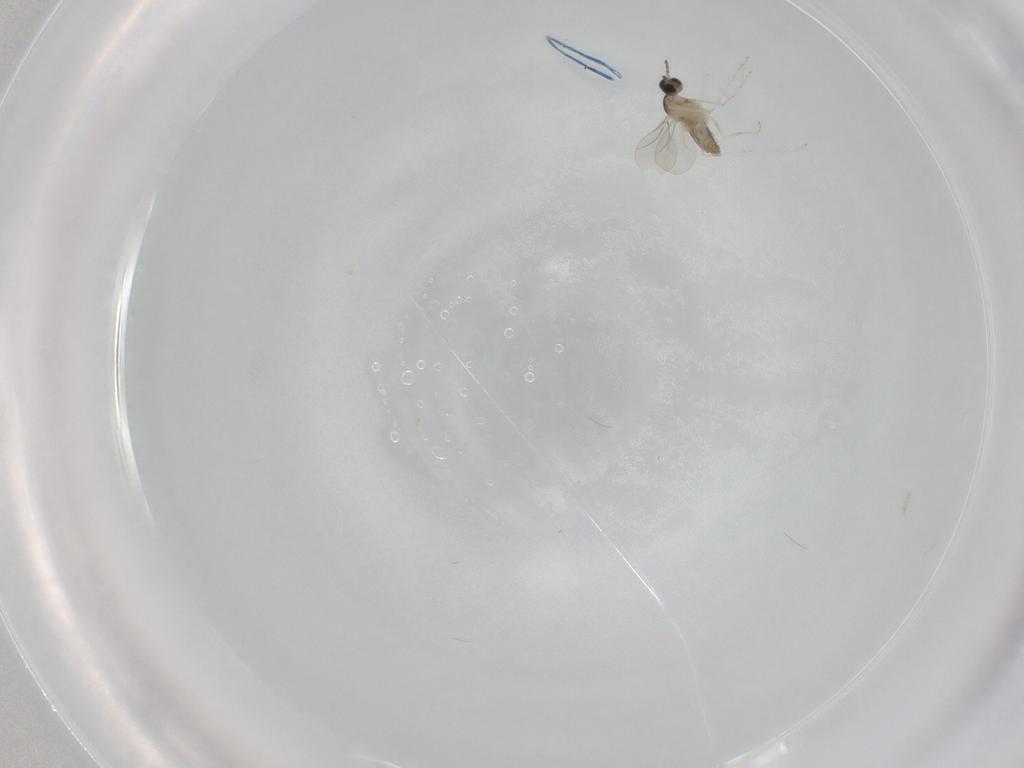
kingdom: Animalia
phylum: Arthropoda
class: Insecta
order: Diptera
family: Cecidomyiidae
